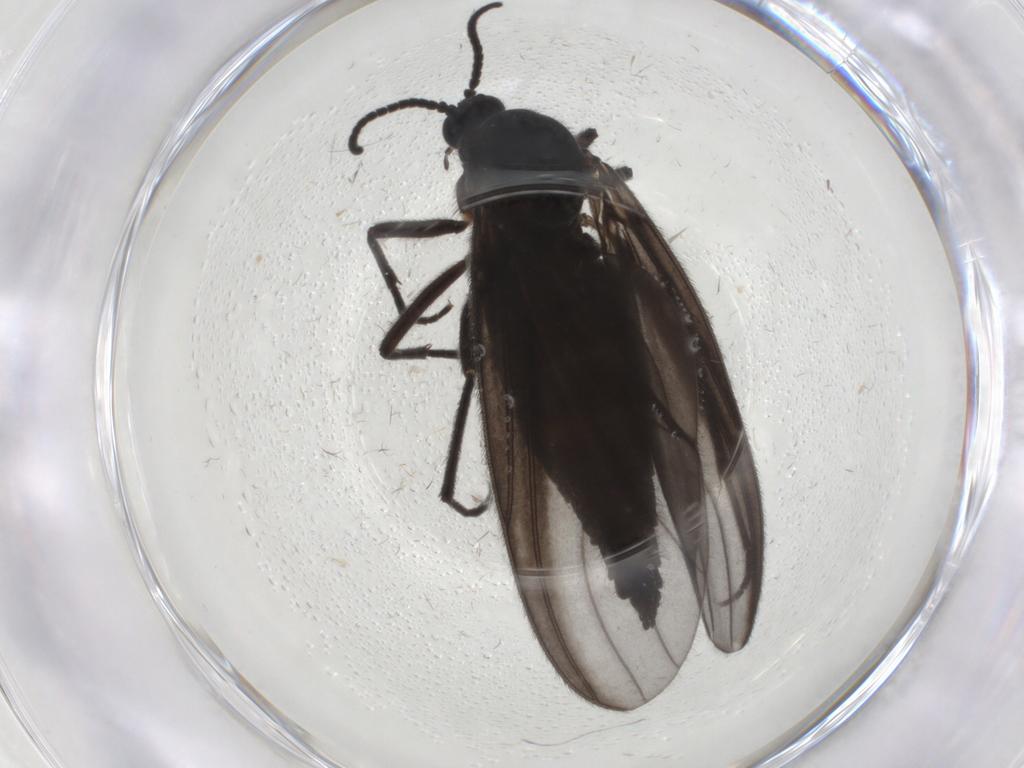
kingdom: Animalia
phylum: Arthropoda
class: Insecta
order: Diptera
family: Sciaridae
